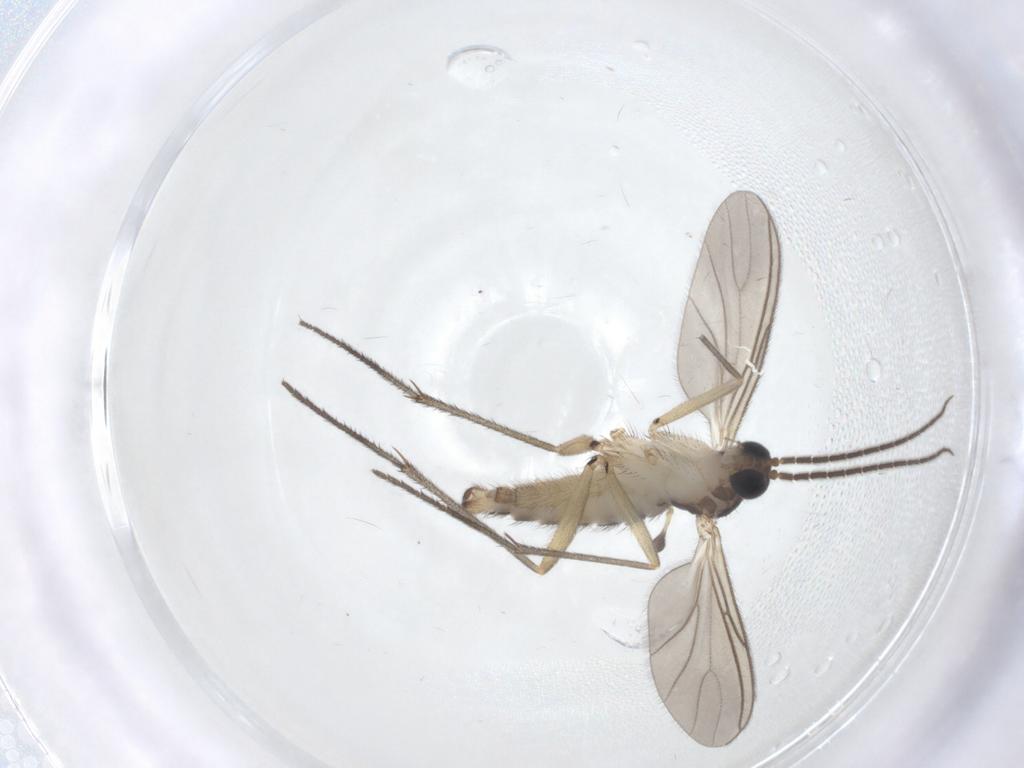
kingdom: Animalia
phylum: Arthropoda
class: Insecta
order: Diptera
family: Sciaridae
